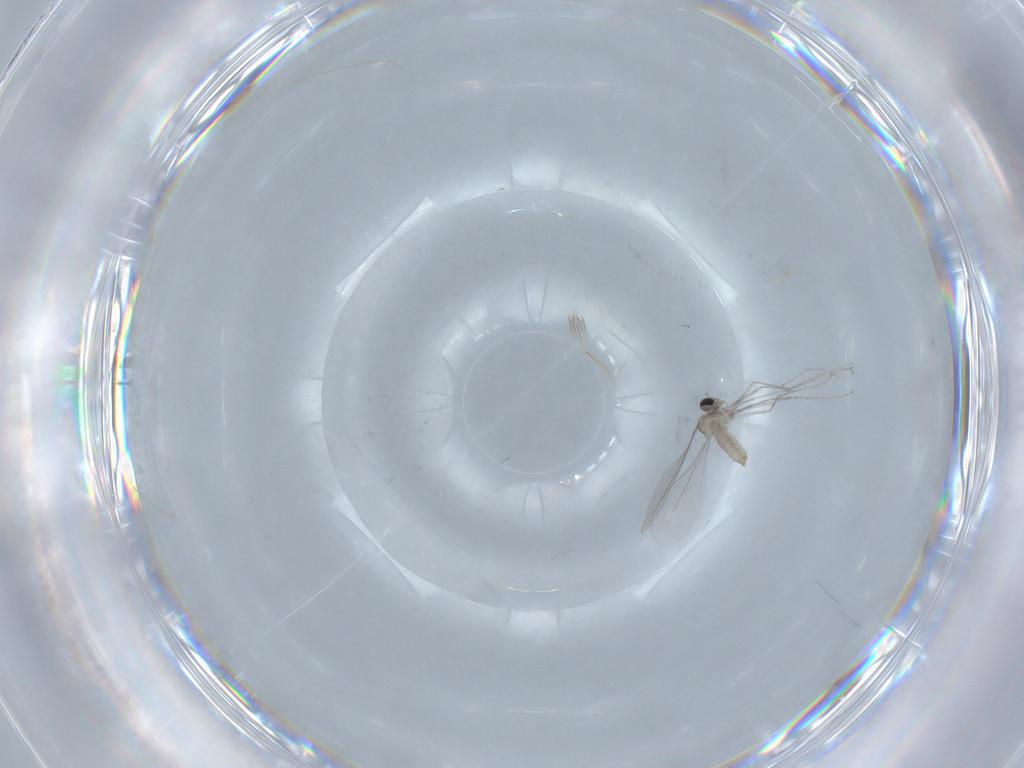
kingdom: Animalia
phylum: Arthropoda
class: Insecta
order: Diptera
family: Cecidomyiidae
